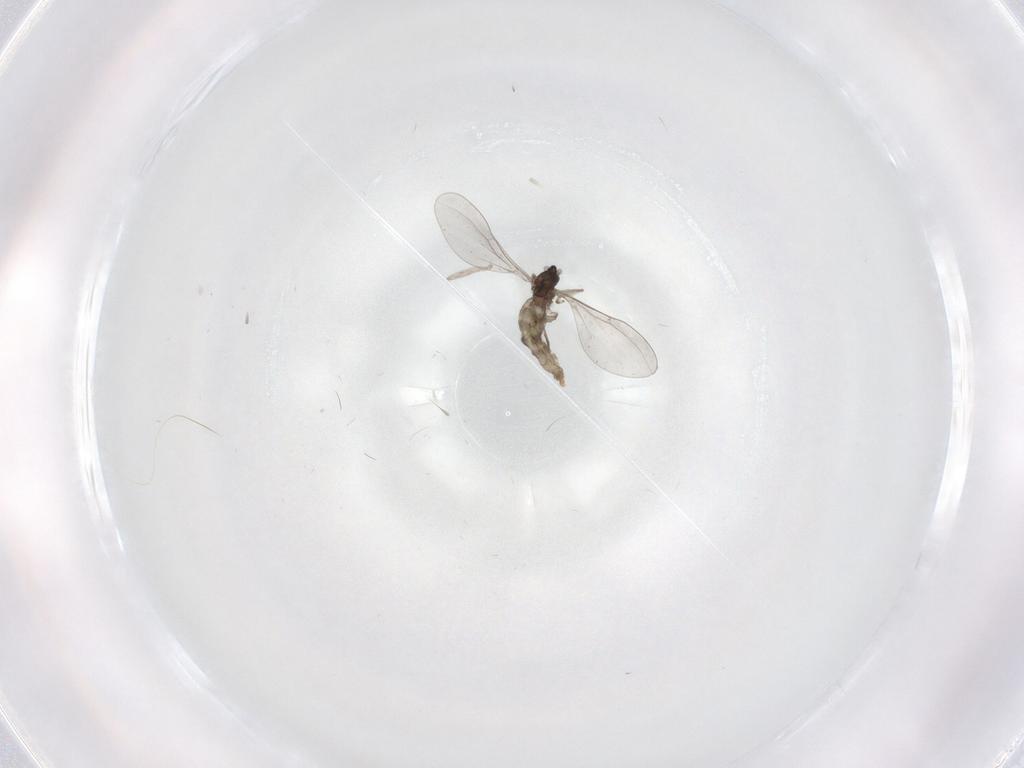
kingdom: Animalia
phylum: Arthropoda
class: Insecta
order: Diptera
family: Cecidomyiidae
